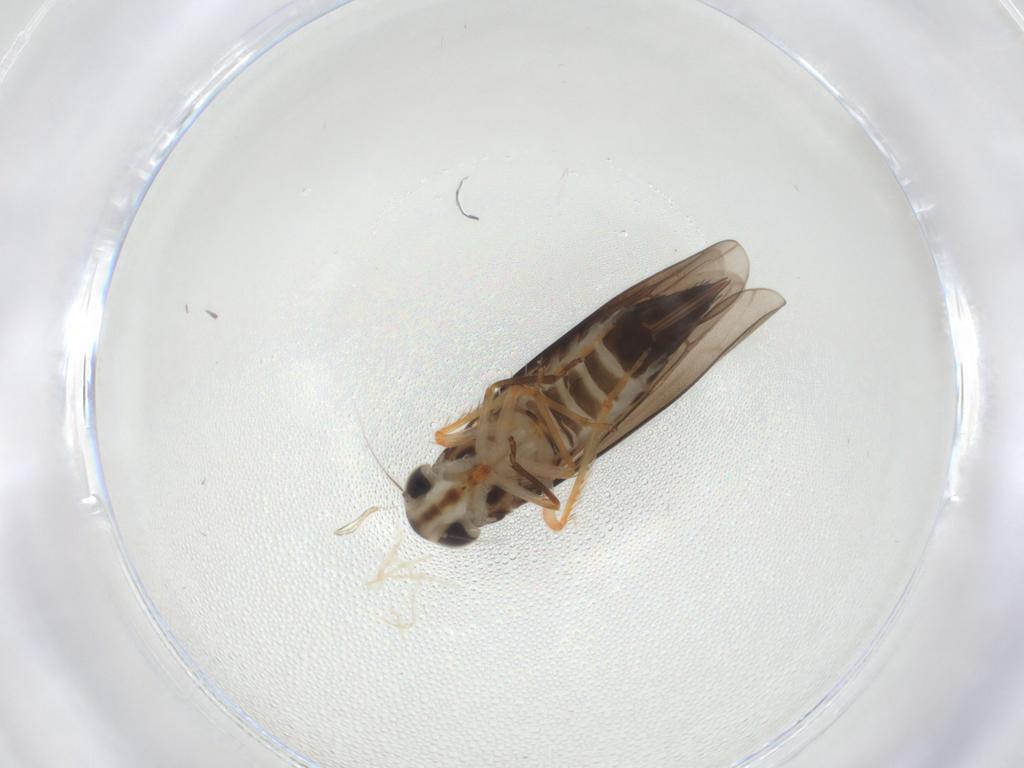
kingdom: Animalia
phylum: Arthropoda
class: Insecta
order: Hemiptera
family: Cicadellidae
